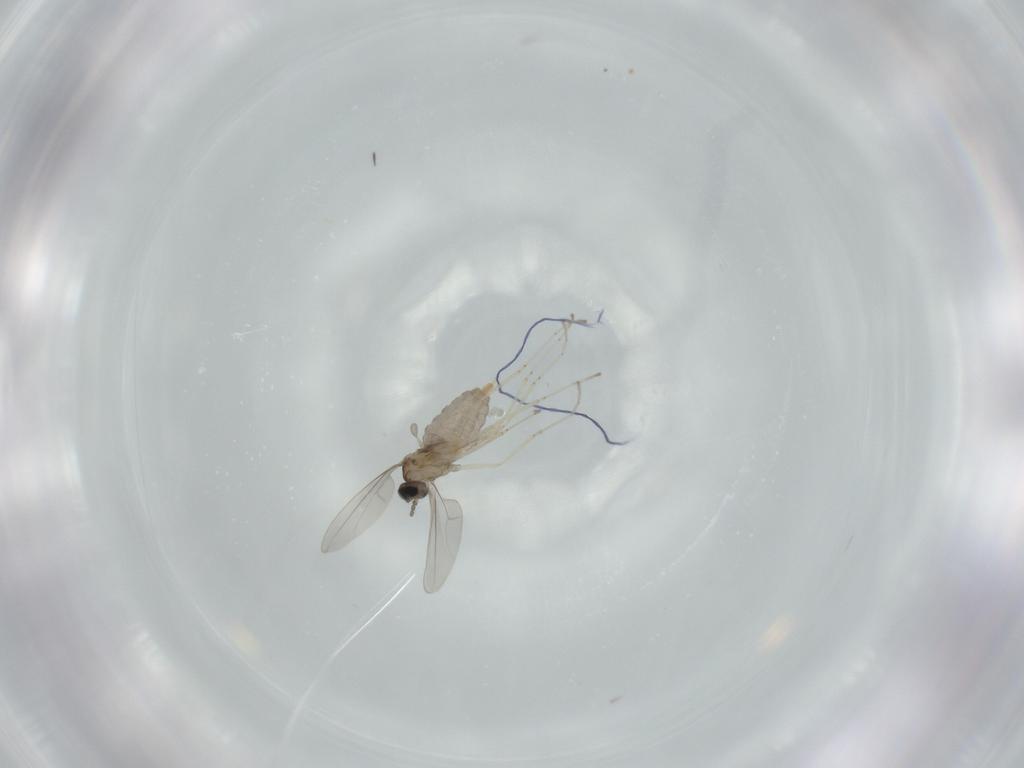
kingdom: Animalia
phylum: Arthropoda
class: Insecta
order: Diptera
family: Cecidomyiidae
